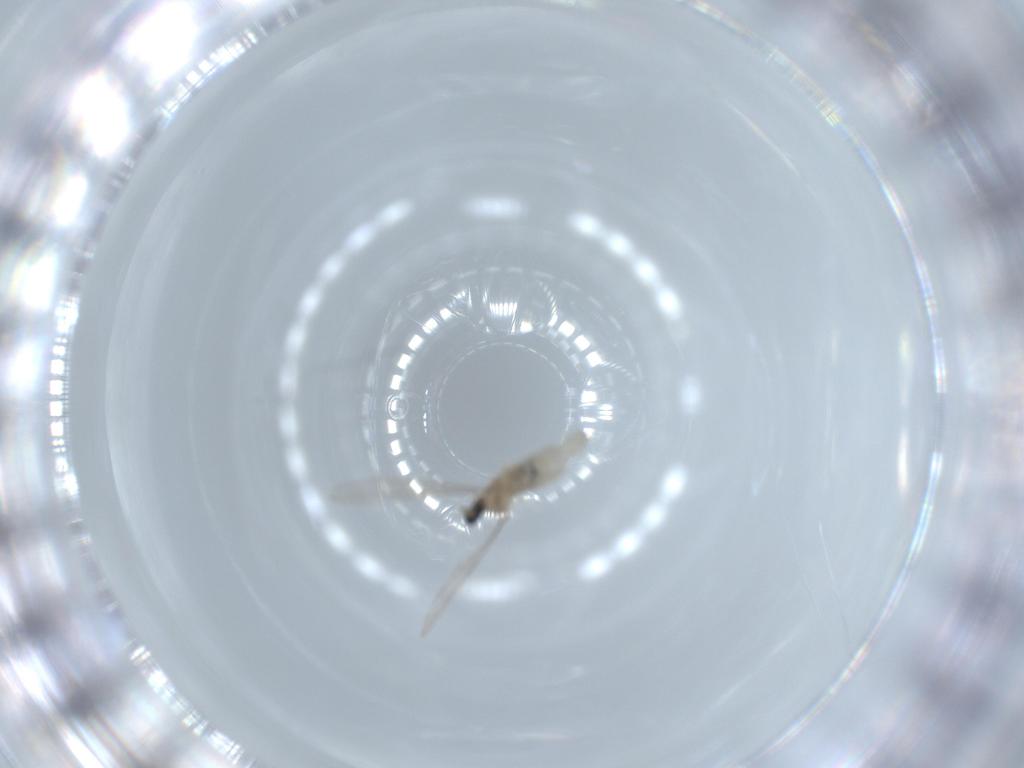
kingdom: Animalia
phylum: Arthropoda
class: Insecta
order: Diptera
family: Cecidomyiidae
